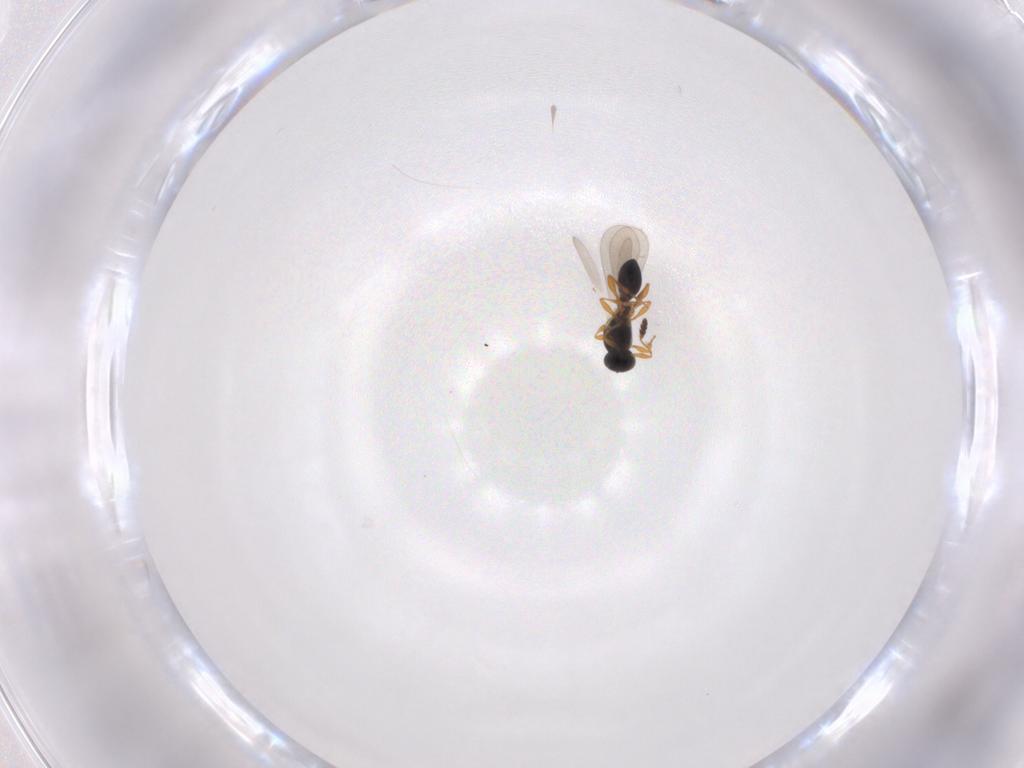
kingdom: Animalia
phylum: Arthropoda
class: Insecta
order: Hymenoptera
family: Platygastridae
